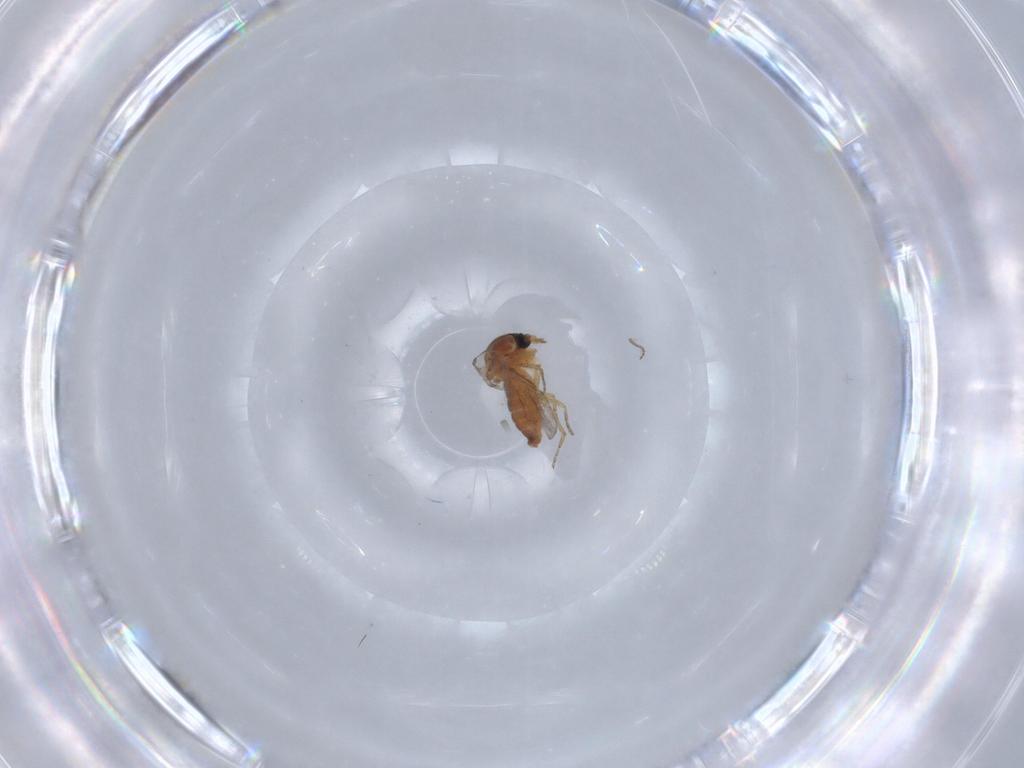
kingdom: Animalia
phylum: Arthropoda
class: Insecta
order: Diptera
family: Ceratopogonidae
